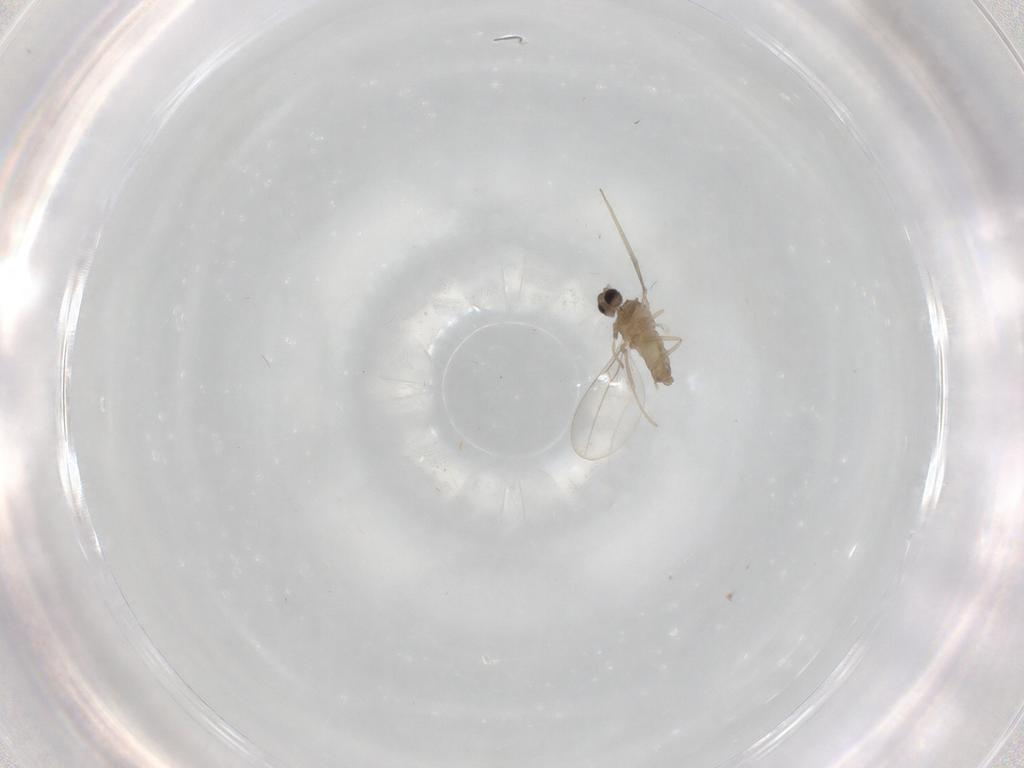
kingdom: Animalia
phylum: Arthropoda
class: Insecta
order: Diptera
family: Cecidomyiidae
